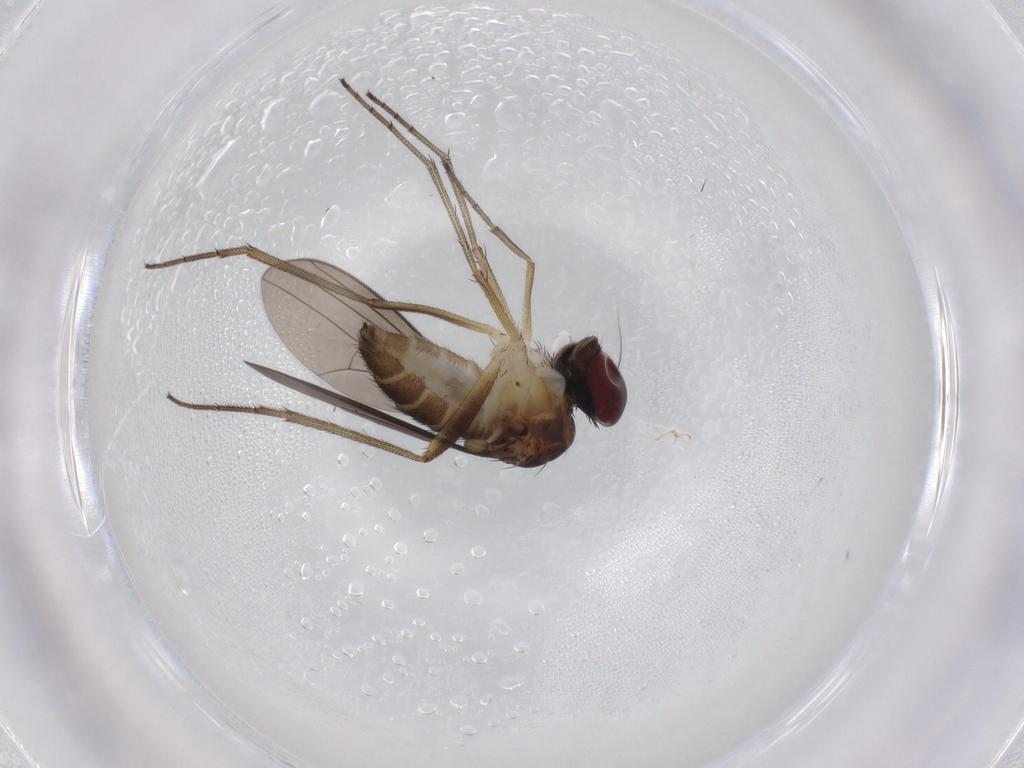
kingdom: Animalia
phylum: Arthropoda
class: Insecta
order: Diptera
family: Dolichopodidae
